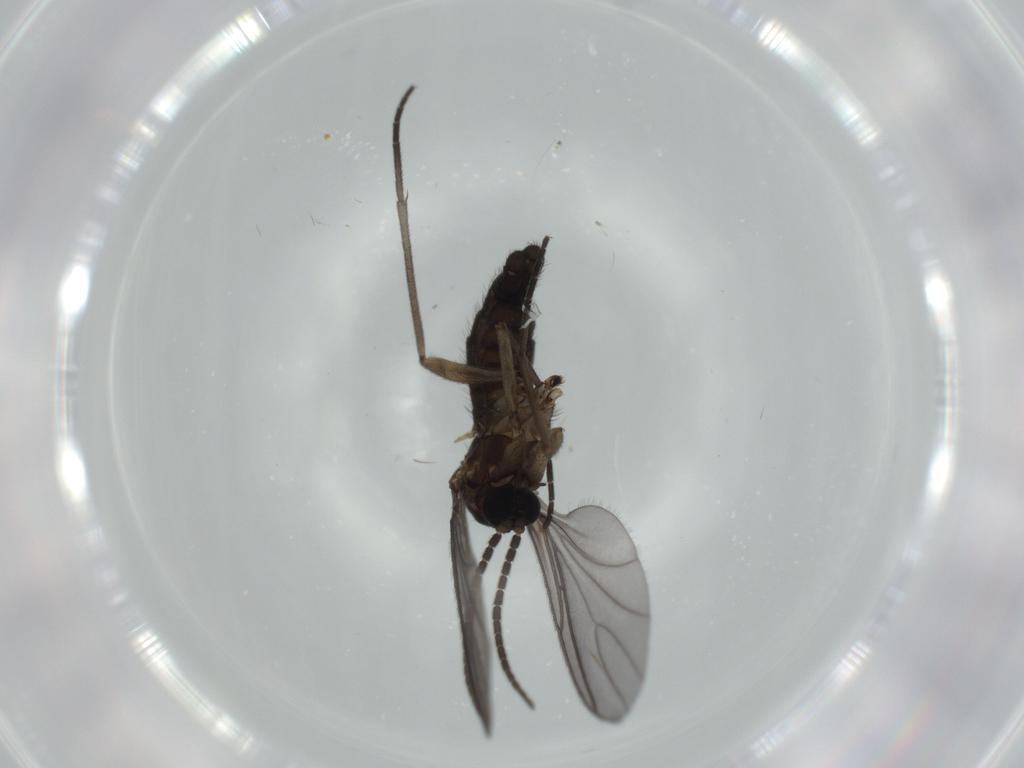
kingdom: Animalia
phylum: Arthropoda
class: Insecta
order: Diptera
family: Sciaridae
